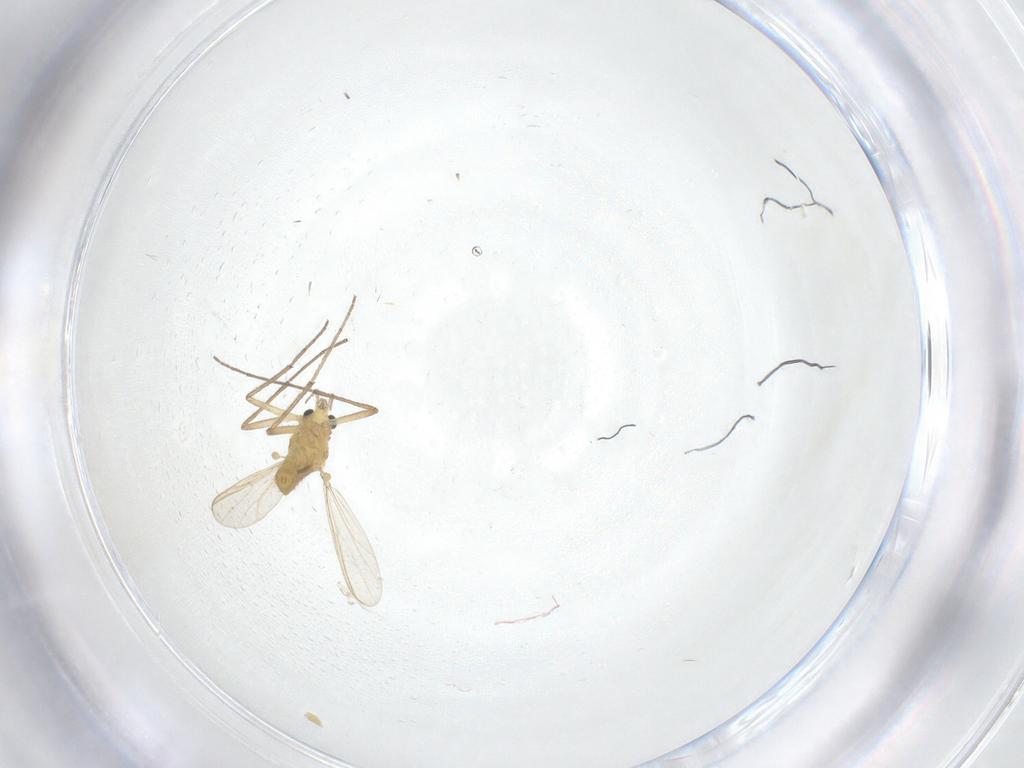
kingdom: Animalia
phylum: Arthropoda
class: Insecta
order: Diptera
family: Chironomidae
